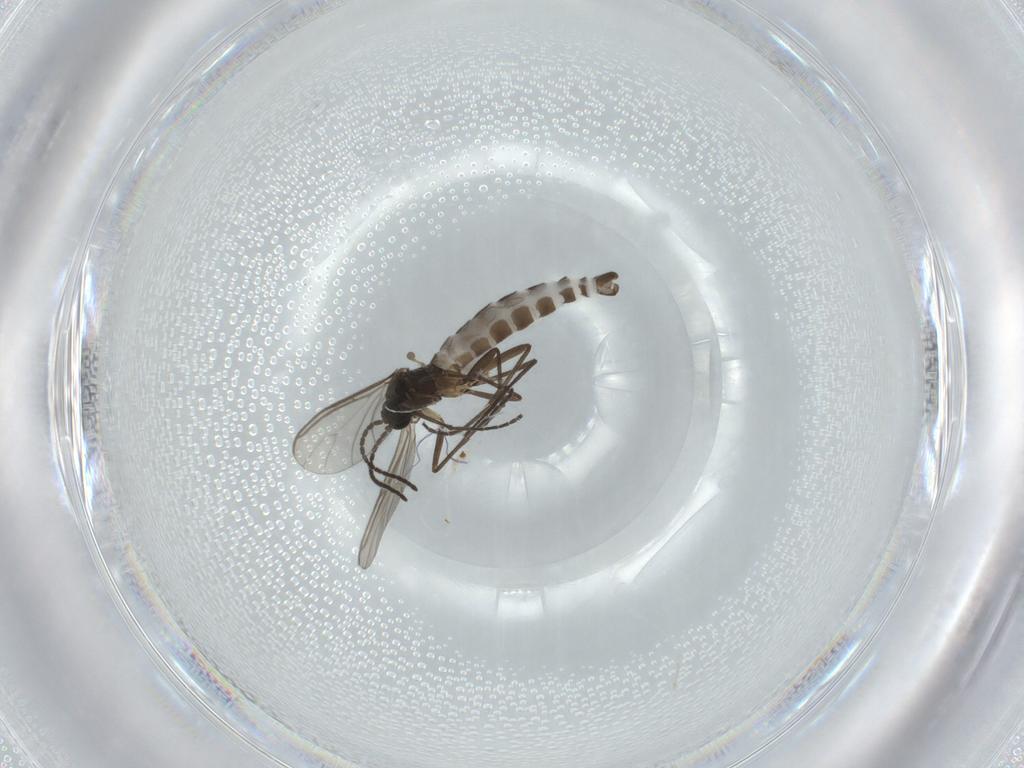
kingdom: Animalia
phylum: Arthropoda
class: Insecta
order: Diptera
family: Sciaridae
